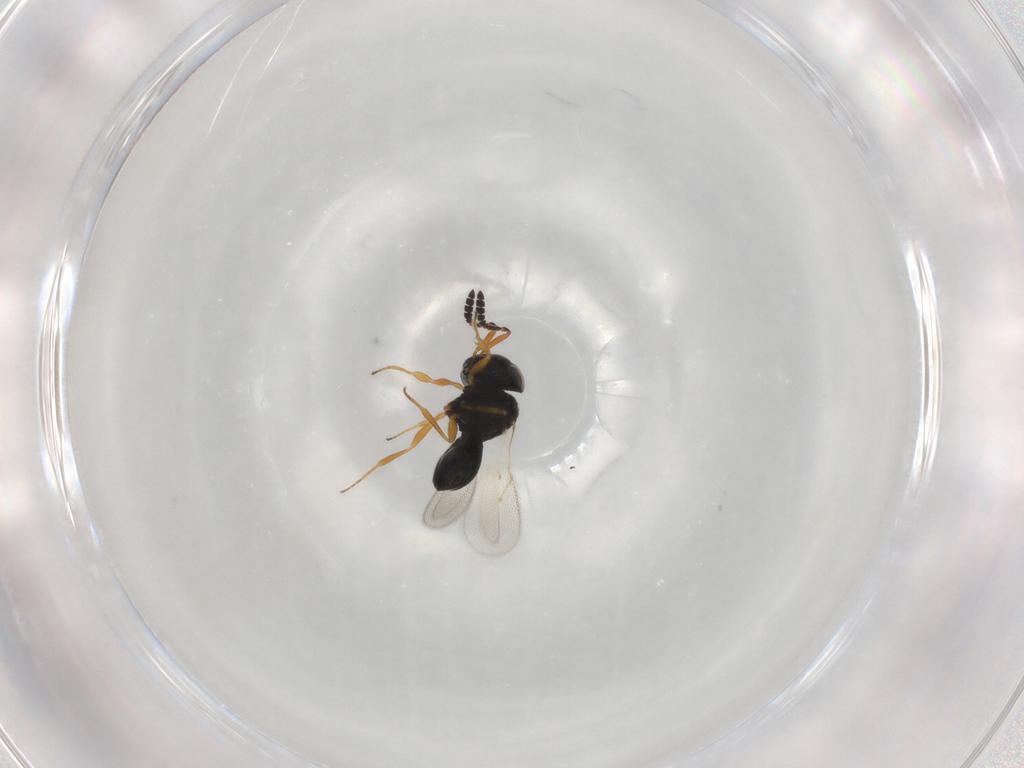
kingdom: Animalia
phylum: Arthropoda
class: Insecta
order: Hymenoptera
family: Scelionidae
